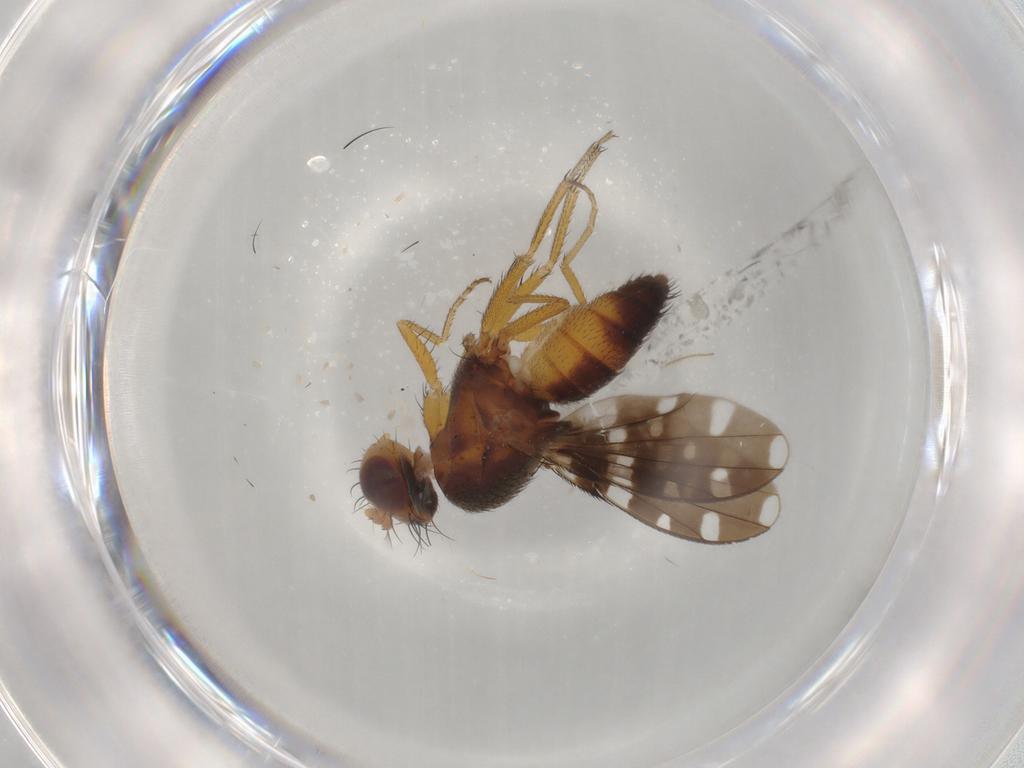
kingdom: Animalia
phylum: Arthropoda
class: Insecta
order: Diptera
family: Ephydridae
